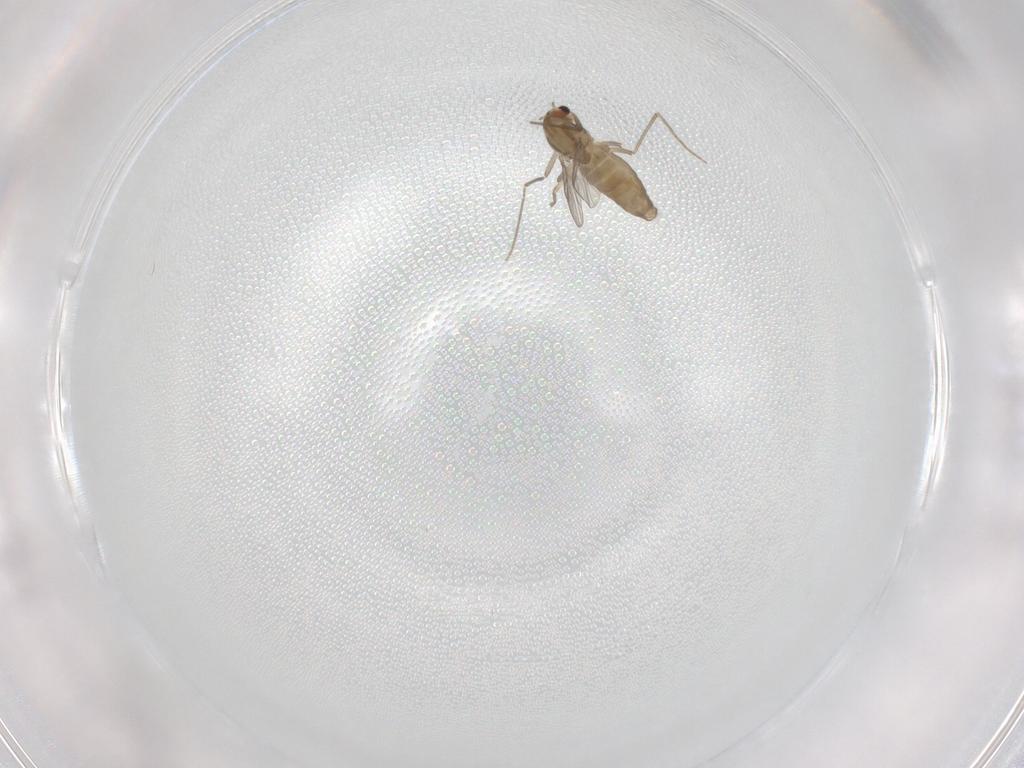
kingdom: Animalia
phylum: Arthropoda
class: Insecta
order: Diptera
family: Chironomidae
